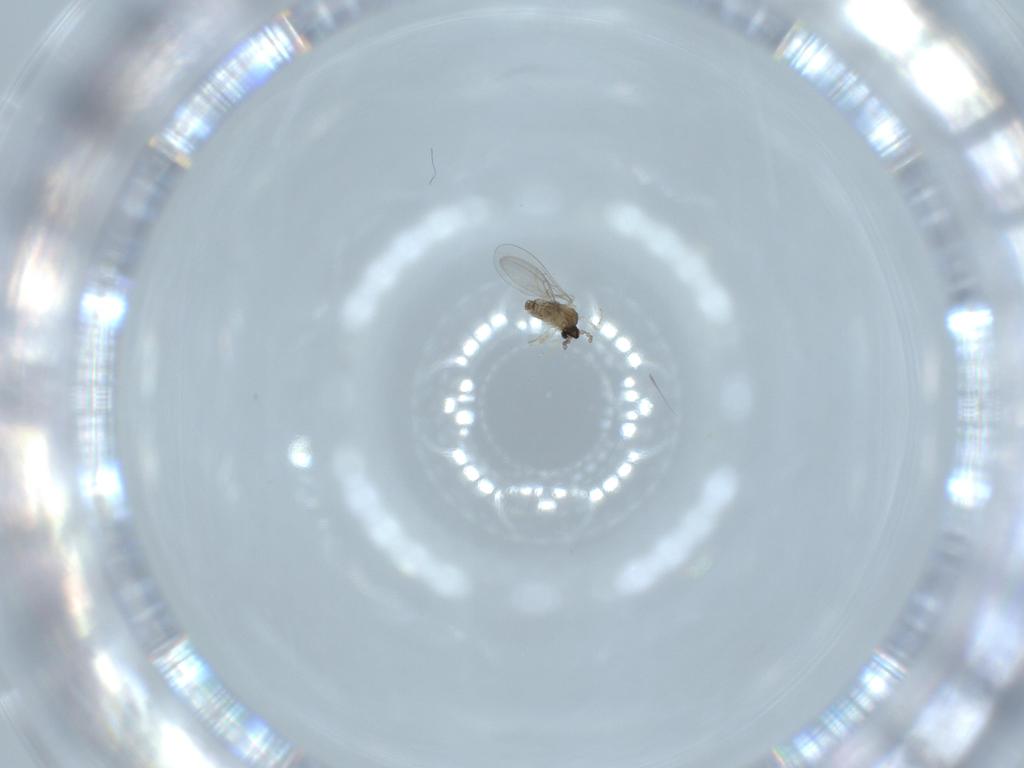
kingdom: Animalia
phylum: Arthropoda
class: Insecta
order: Diptera
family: Cecidomyiidae
